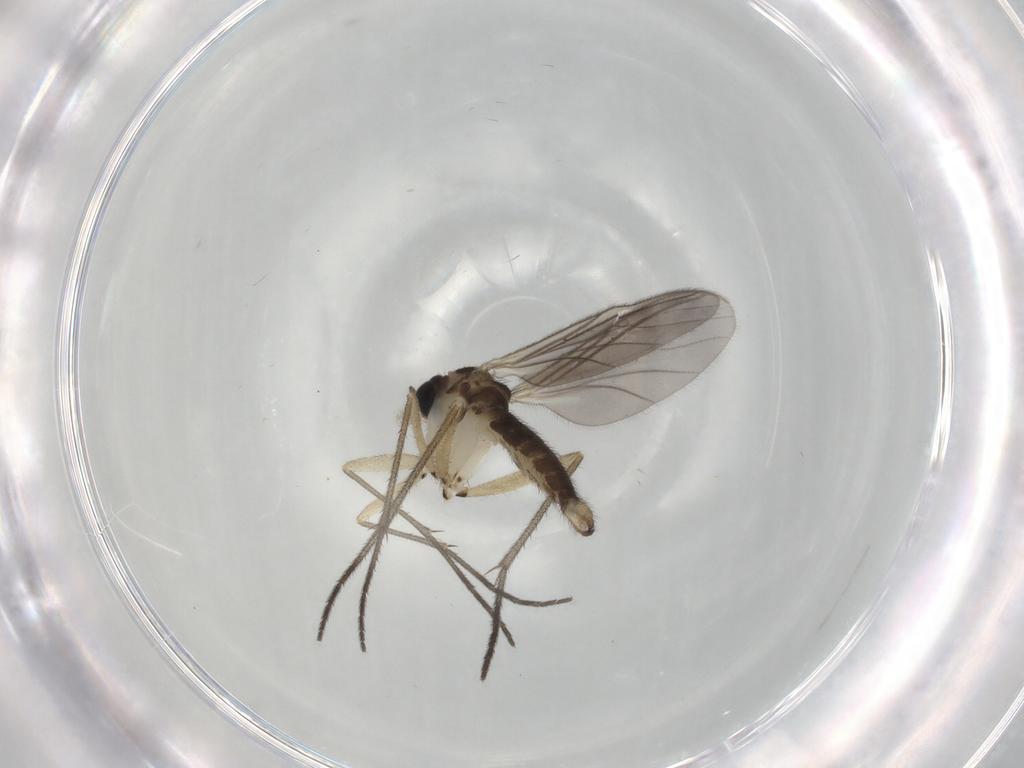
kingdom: Animalia
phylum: Arthropoda
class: Insecta
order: Diptera
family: Sciaridae
